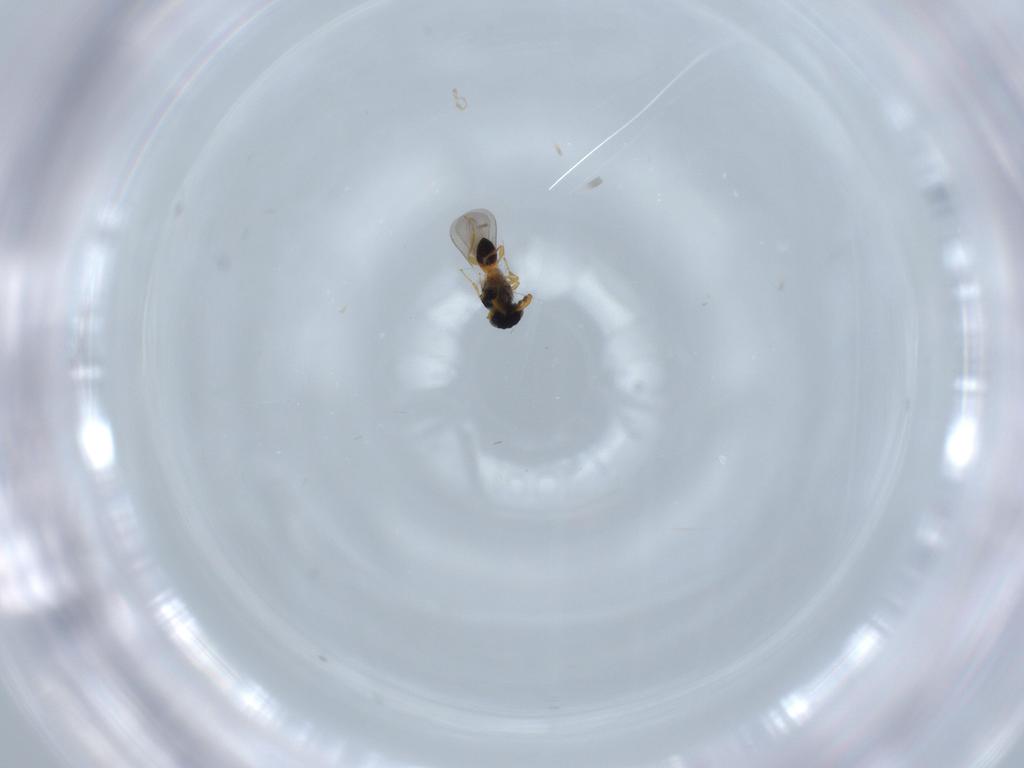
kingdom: Animalia
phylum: Arthropoda
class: Insecta
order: Hymenoptera
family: Platygastridae
